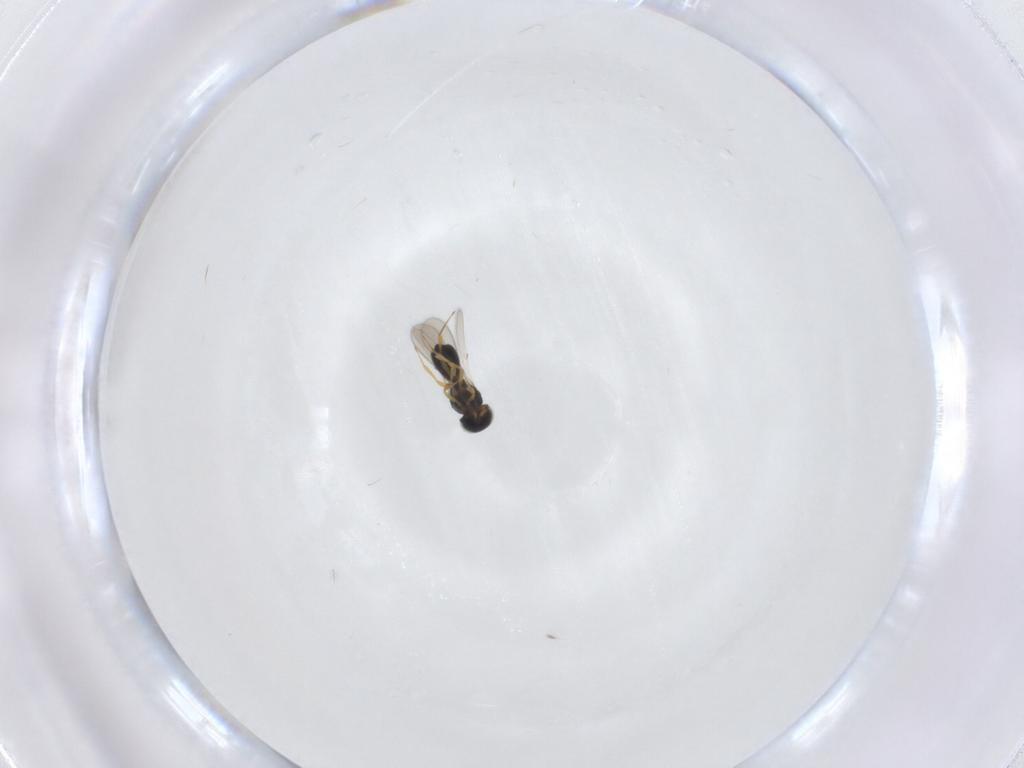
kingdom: Animalia
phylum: Arthropoda
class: Insecta
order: Hymenoptera
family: Scelionidae
